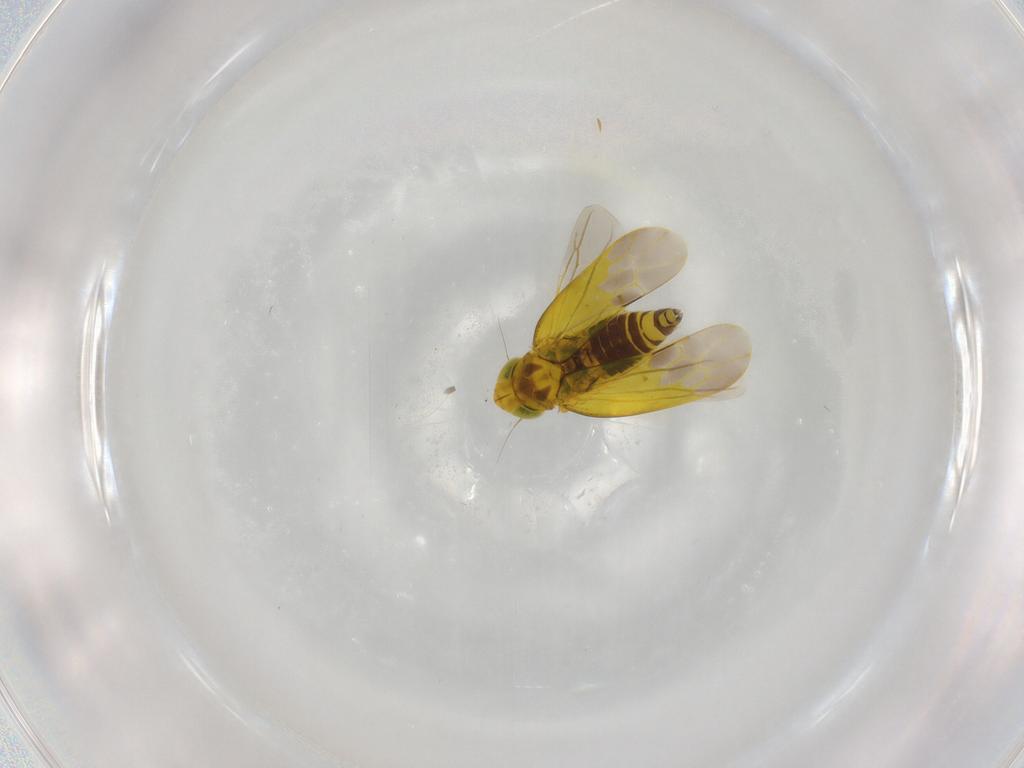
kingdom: Animalia
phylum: Arthropoda
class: Insecta
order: Hemiptera
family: Cicadellidae
